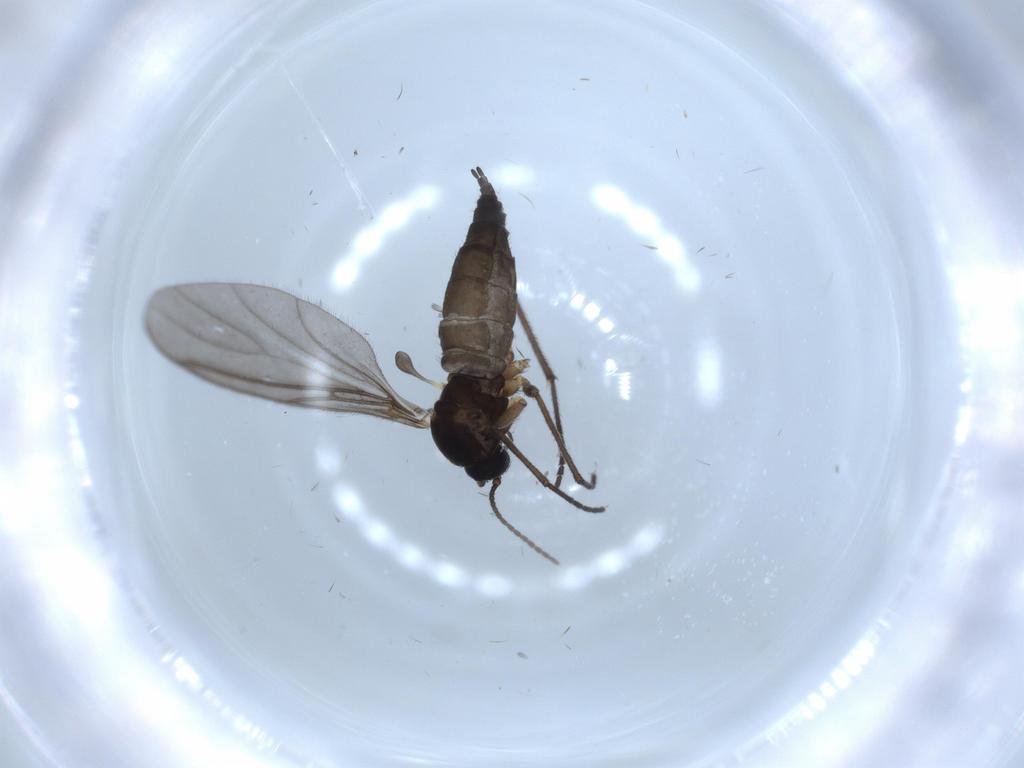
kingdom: Animalia
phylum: Arthropoda
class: Insecta
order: Diptera
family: Sciaridae
